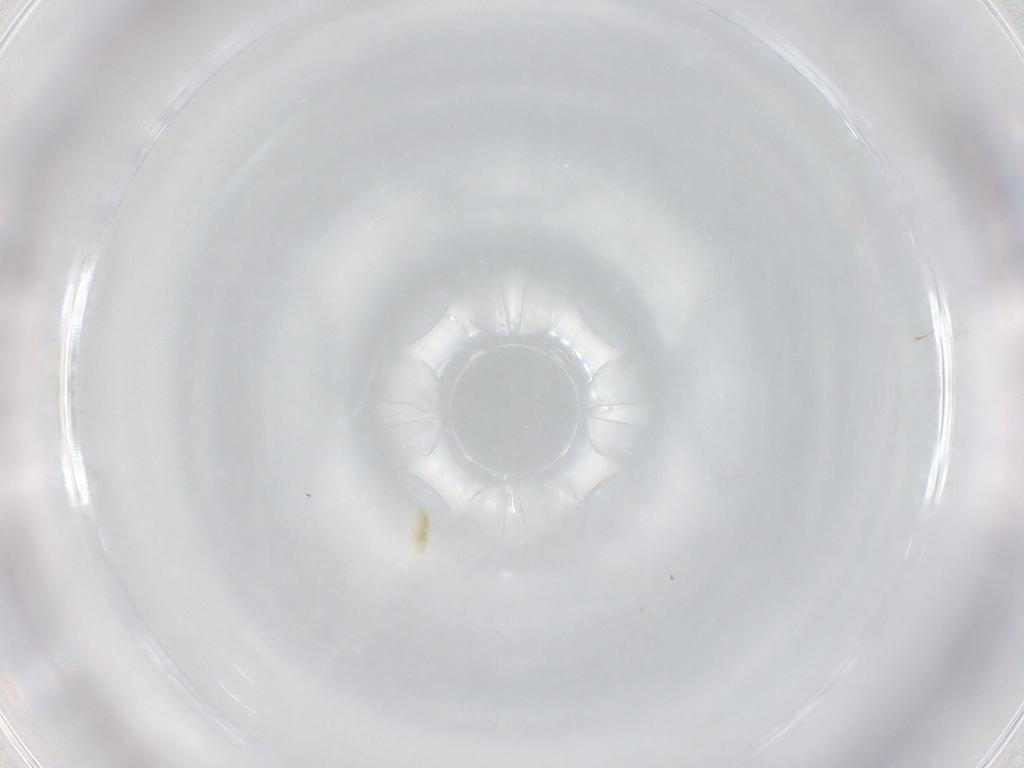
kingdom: Animalia
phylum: Arthropoda
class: Arachnida
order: Trombidiformes
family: Eupodidae
